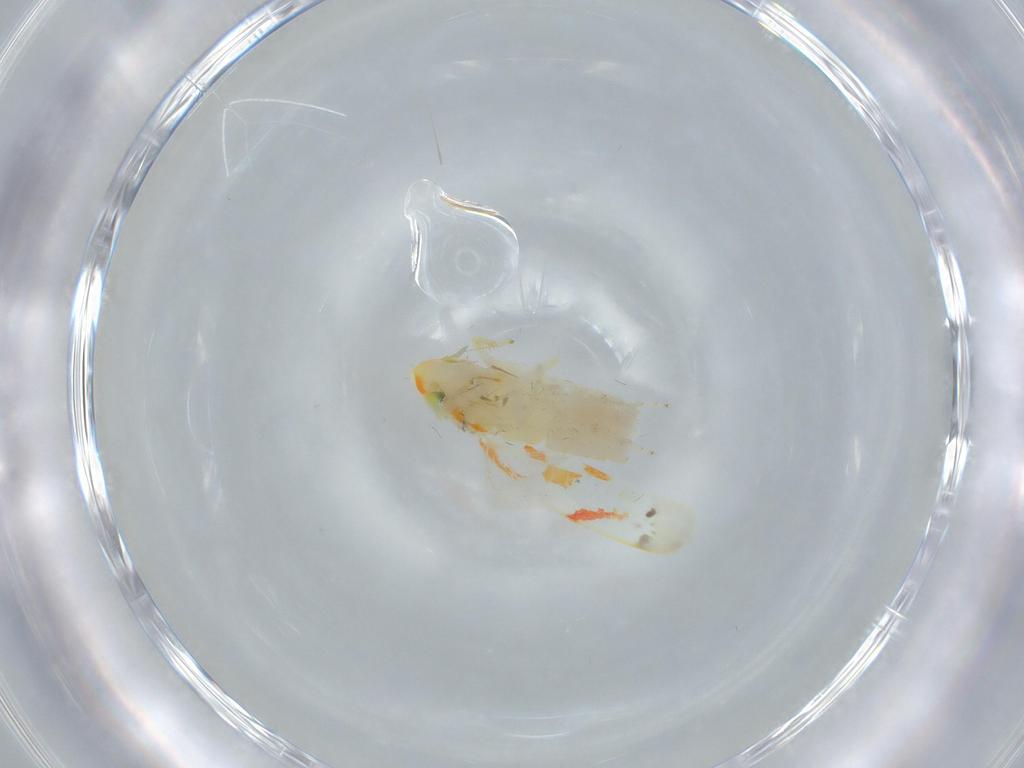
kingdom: Animalia
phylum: Arthropoda
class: Insecta
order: Hemiptera
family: Cicadellidae
